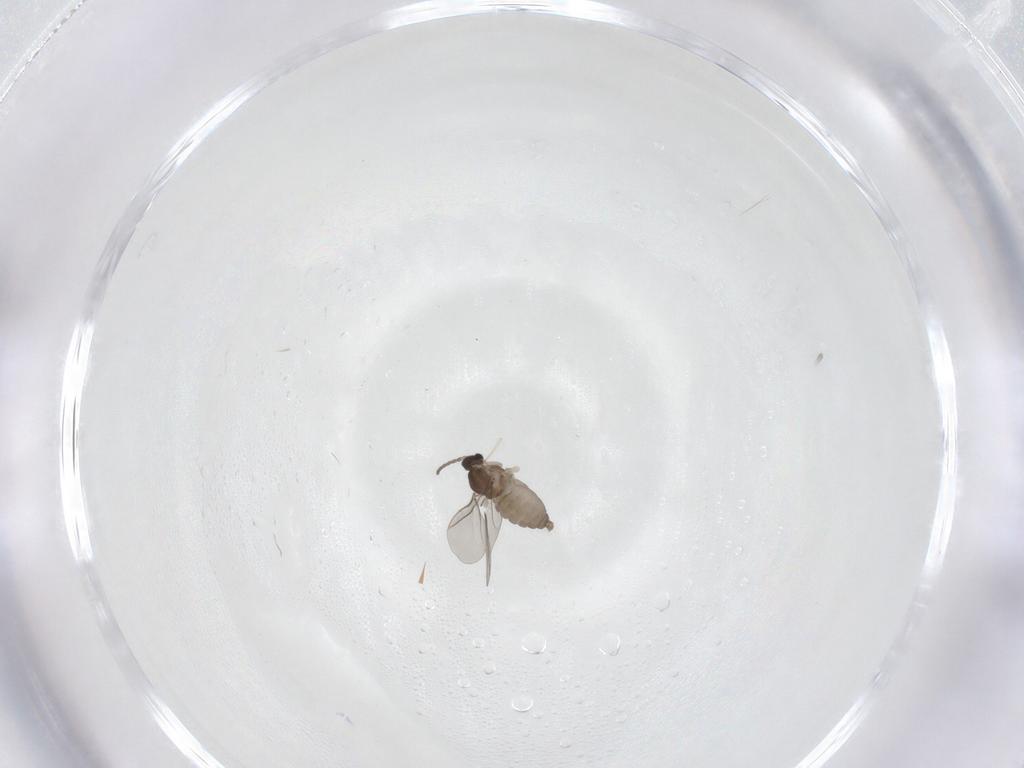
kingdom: Animalia
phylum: Arthropoda
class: Insecta
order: Diptera
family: Cecidomyiidae
